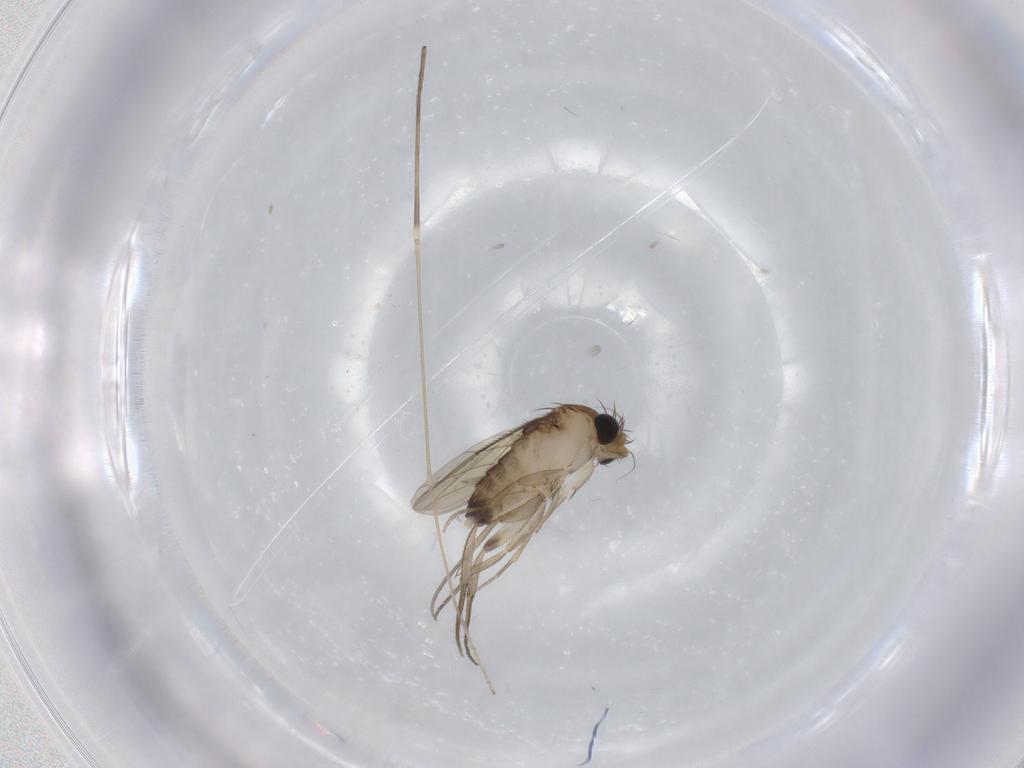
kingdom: Animalia
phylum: Arthropoda
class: Insecta
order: Diptera
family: Phoridae
